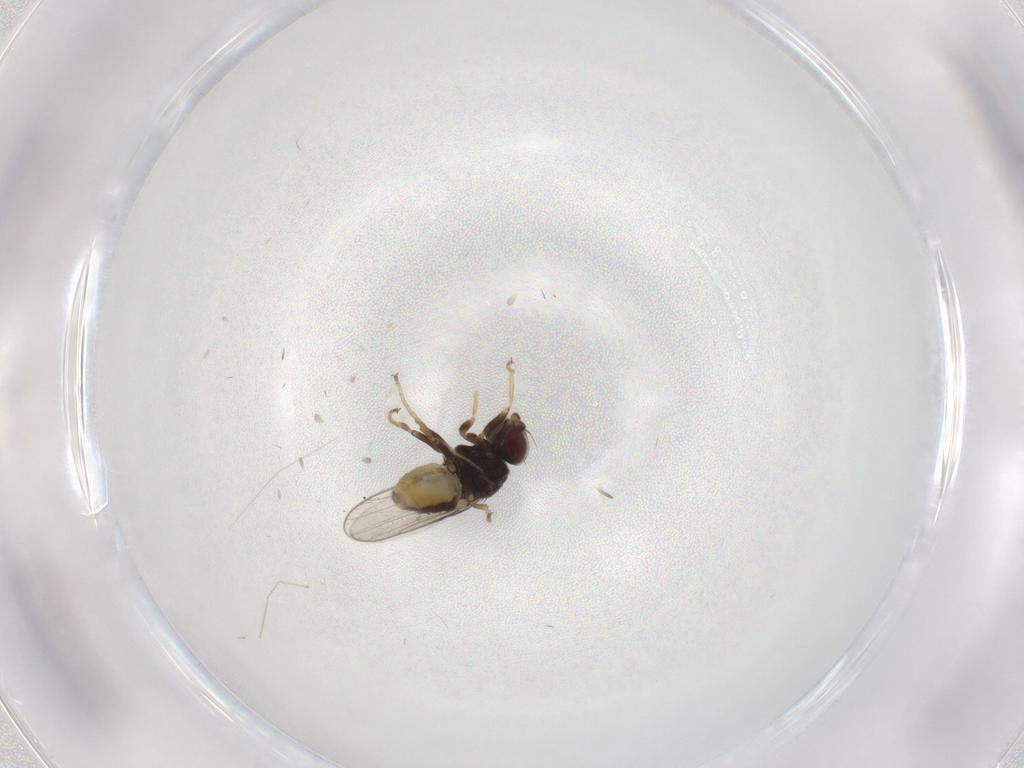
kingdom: Animalia
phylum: Arthropoda
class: Insecta
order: Diptera
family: Chloropidae
